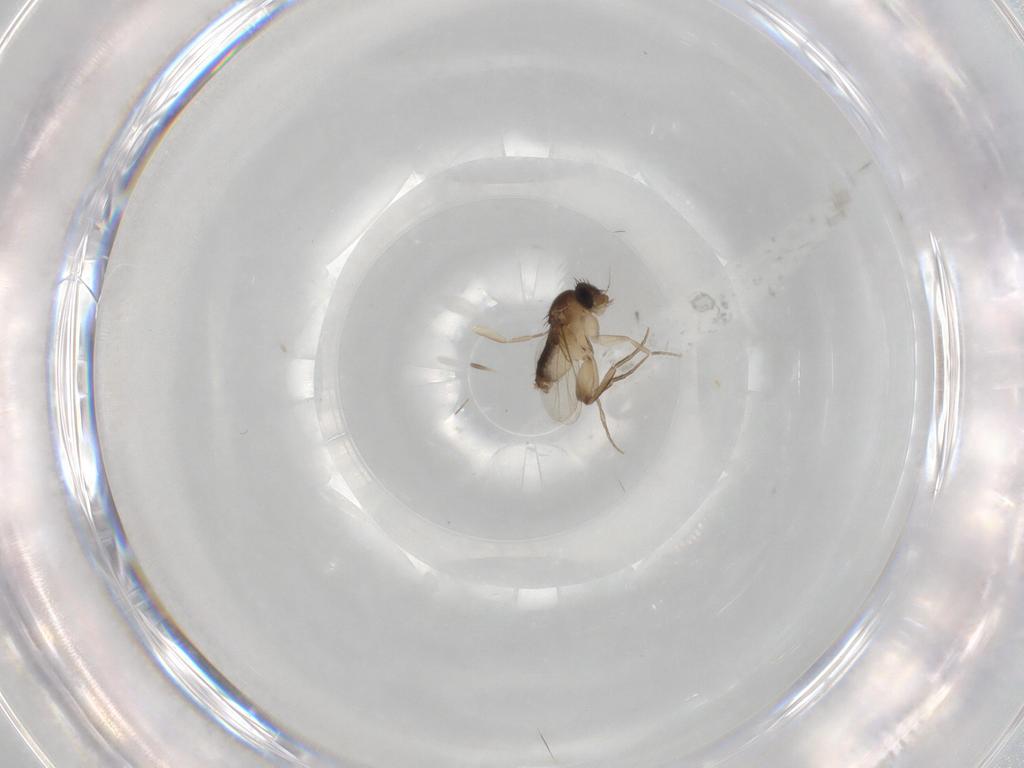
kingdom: Animalia
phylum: Arthropoda
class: Insecta
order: Diptera
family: Phoridae
